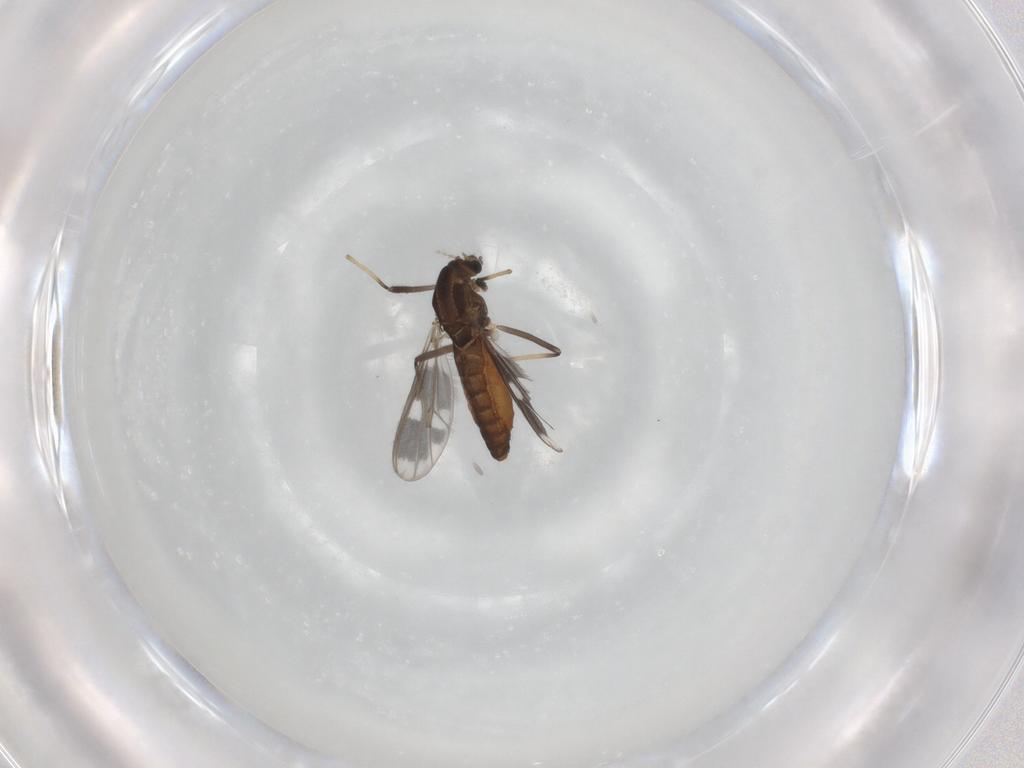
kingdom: Animalia
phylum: Arthropoda
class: Insecta
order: Diptera
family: Chironomidae
